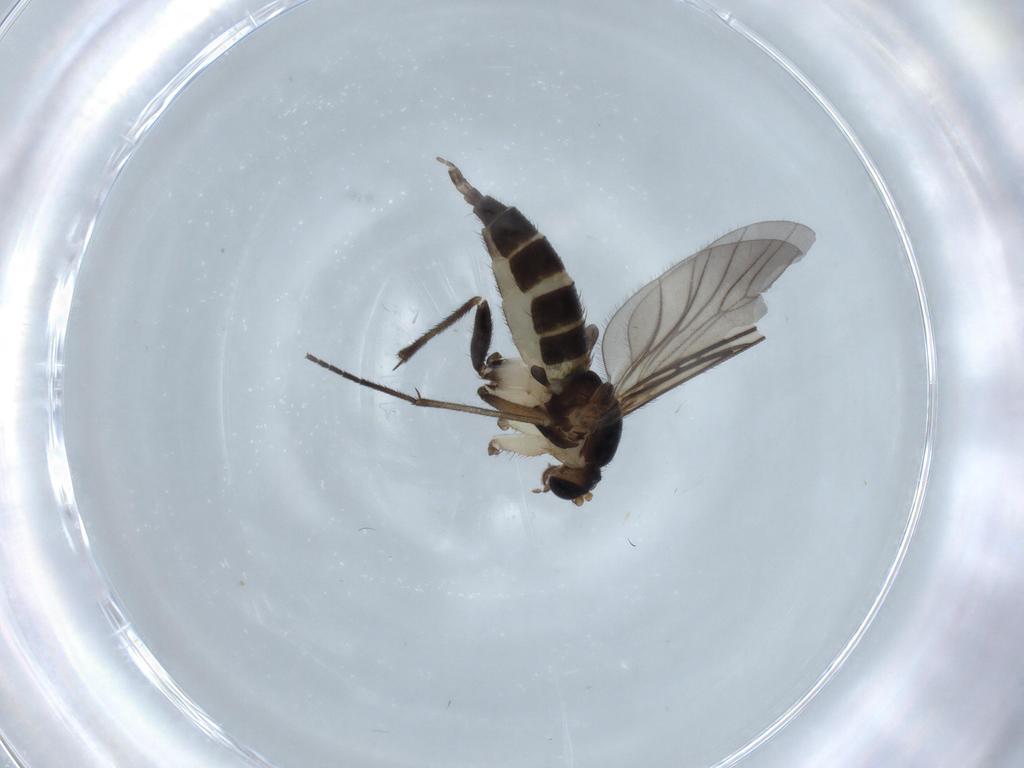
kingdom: Animalia
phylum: Arthropoda
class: Insecta
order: Diptera
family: Sciaridae
